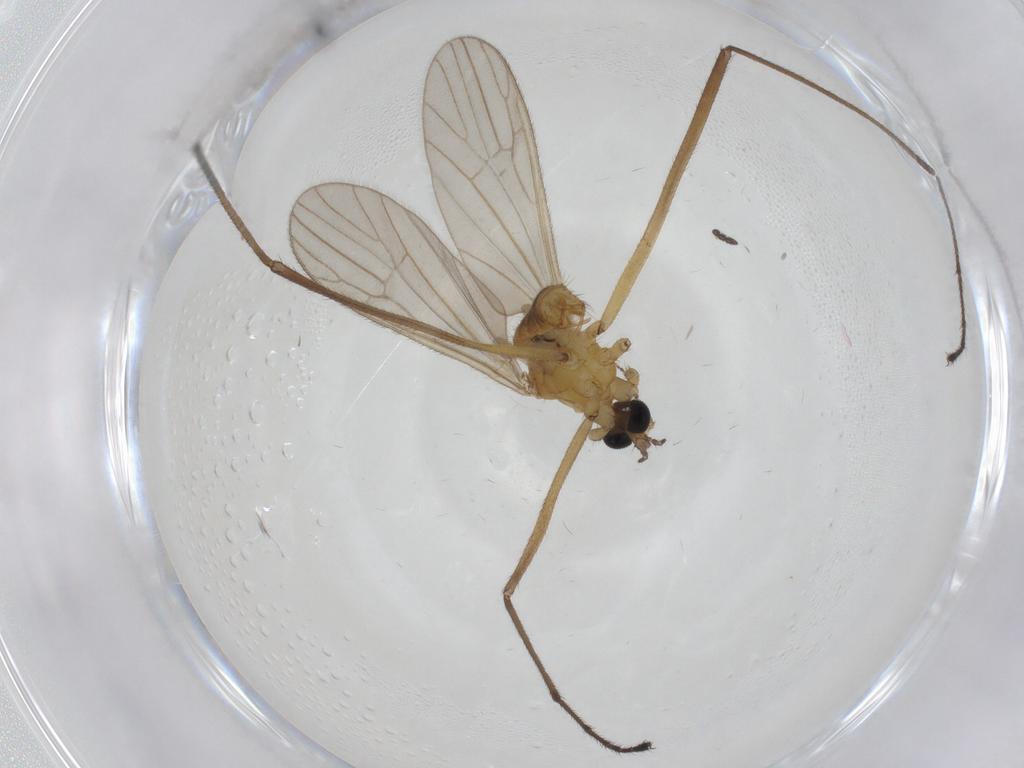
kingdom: Animalia
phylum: Arthropoda
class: Insecta
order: Diptera
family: Limoniidae
